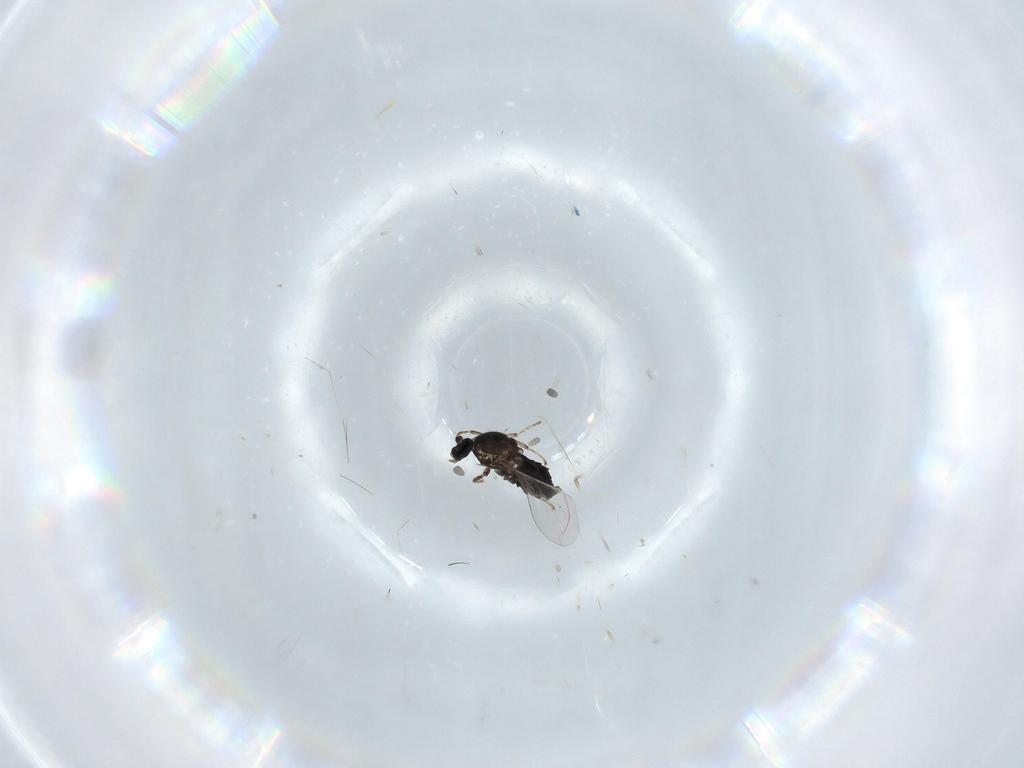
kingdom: Animalia
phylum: Arthropoda
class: Insecta
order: Diptera
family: Scatopsidae
